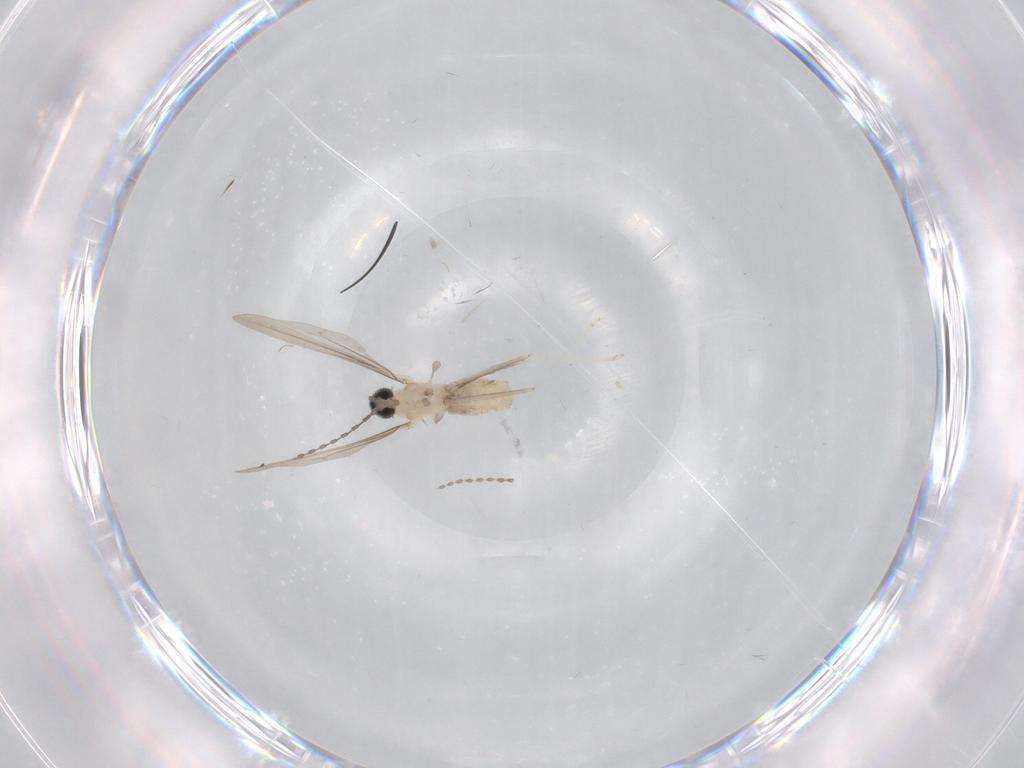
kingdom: Animalia
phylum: Arthropoda
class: Insecta
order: Diptera
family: Cecidomyiidae
